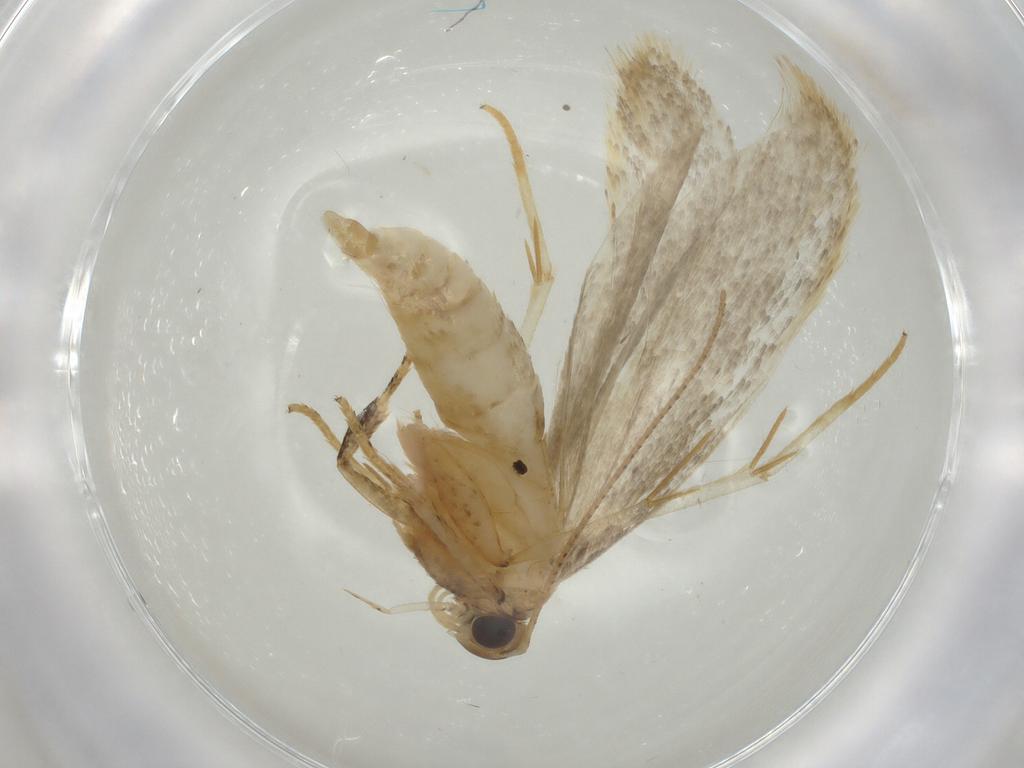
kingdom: Animalia
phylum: Arthropoda
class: Insecta
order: Lepidoptera
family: Gelechiidae
